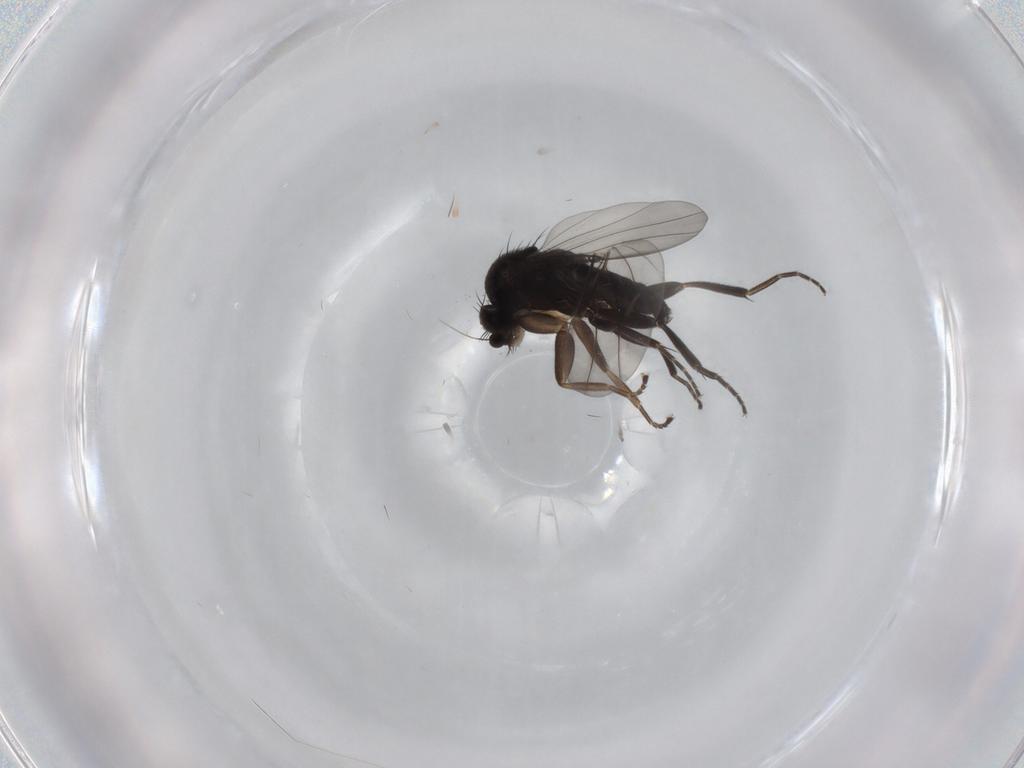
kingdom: Animalia
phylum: Arthropoda
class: Insecta
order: Diptera
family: Phoridae
